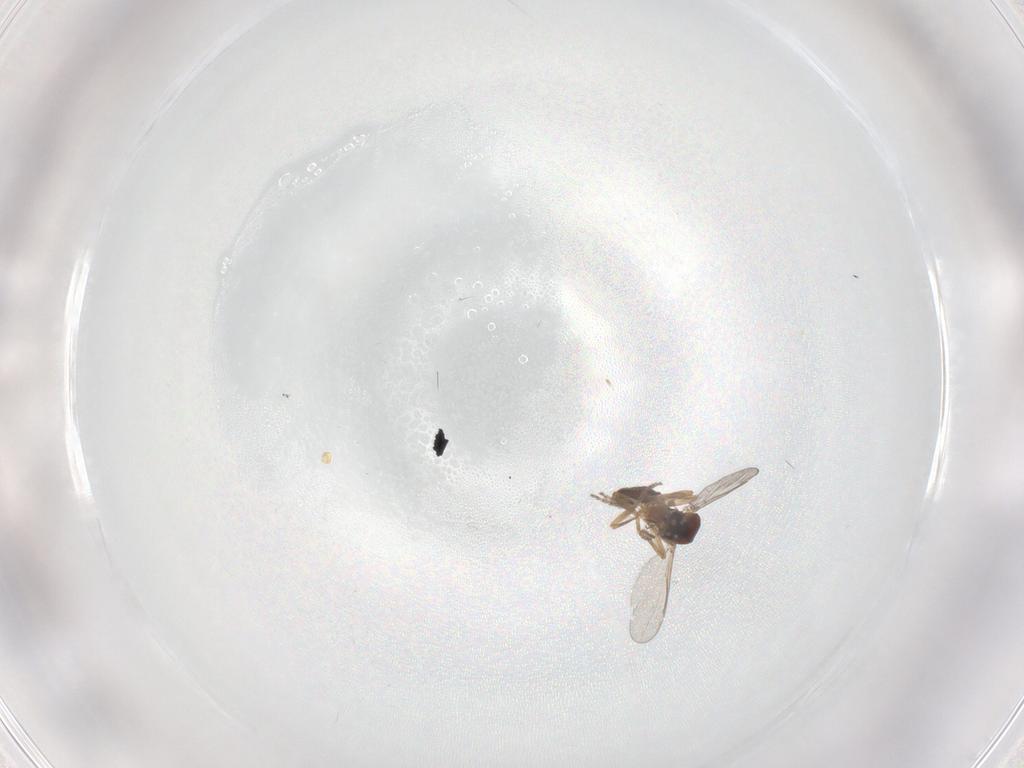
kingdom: Animalia
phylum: Arthropoda
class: Insecta
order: Diptera
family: Ceratopogonidae
